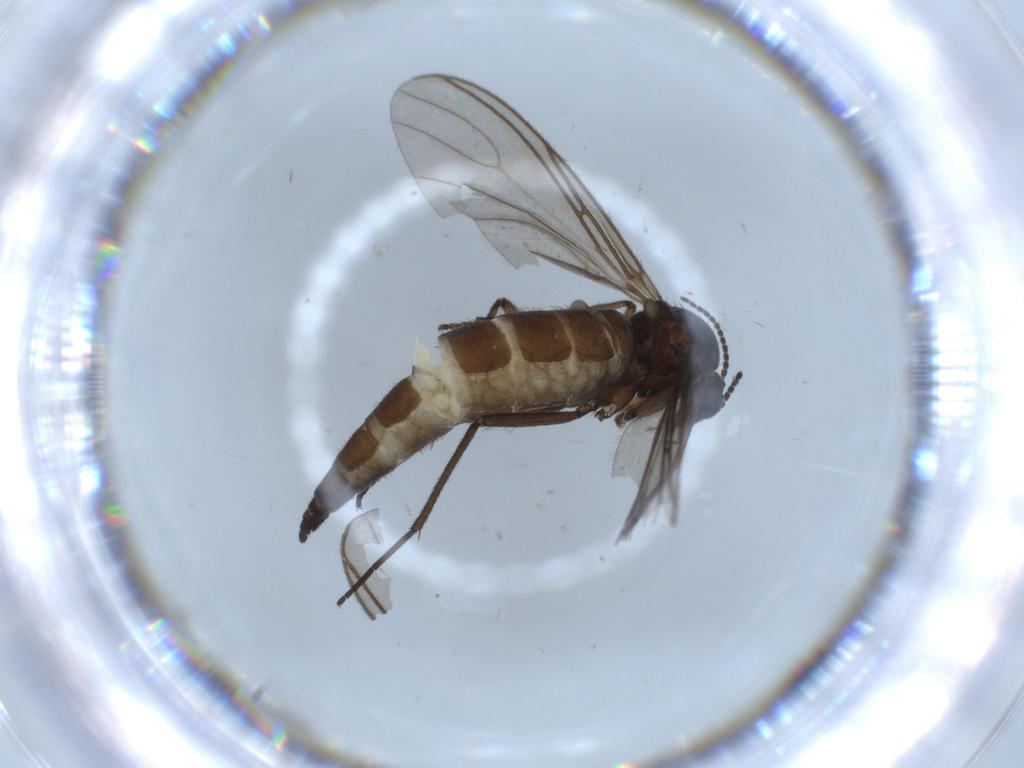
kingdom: Animalia
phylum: Arthropoda
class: Insecta
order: Diptera
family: Sciaridae
